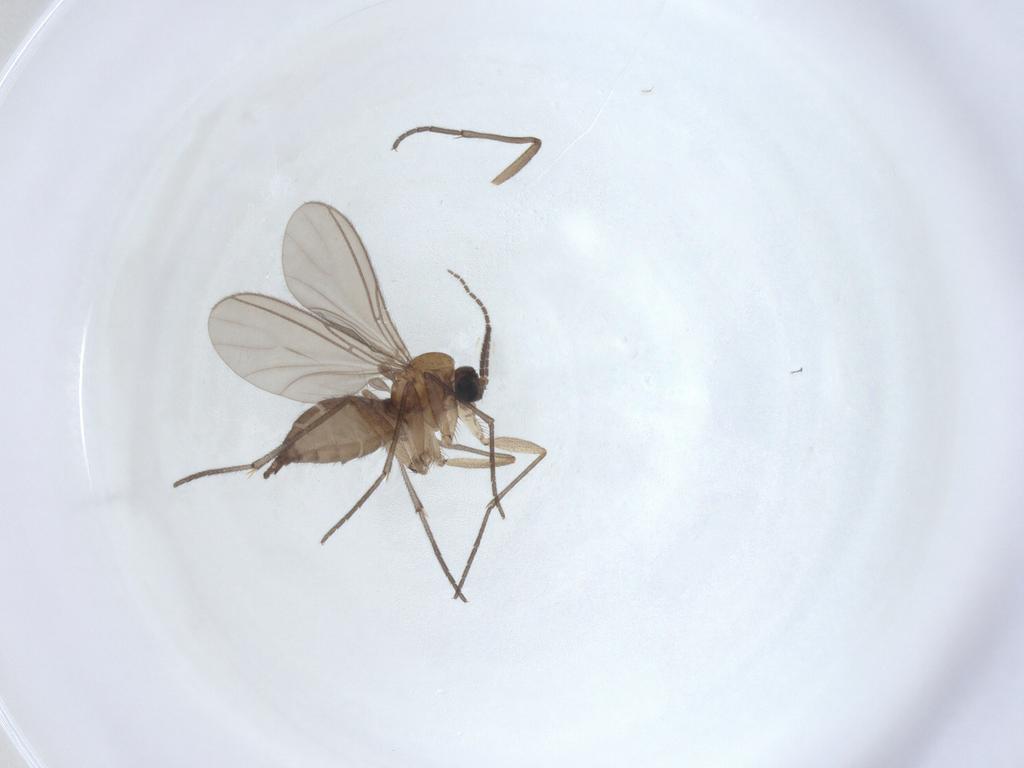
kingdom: Animalia
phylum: Arthropoda
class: Insecta
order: Diptera
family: Sciaridae
